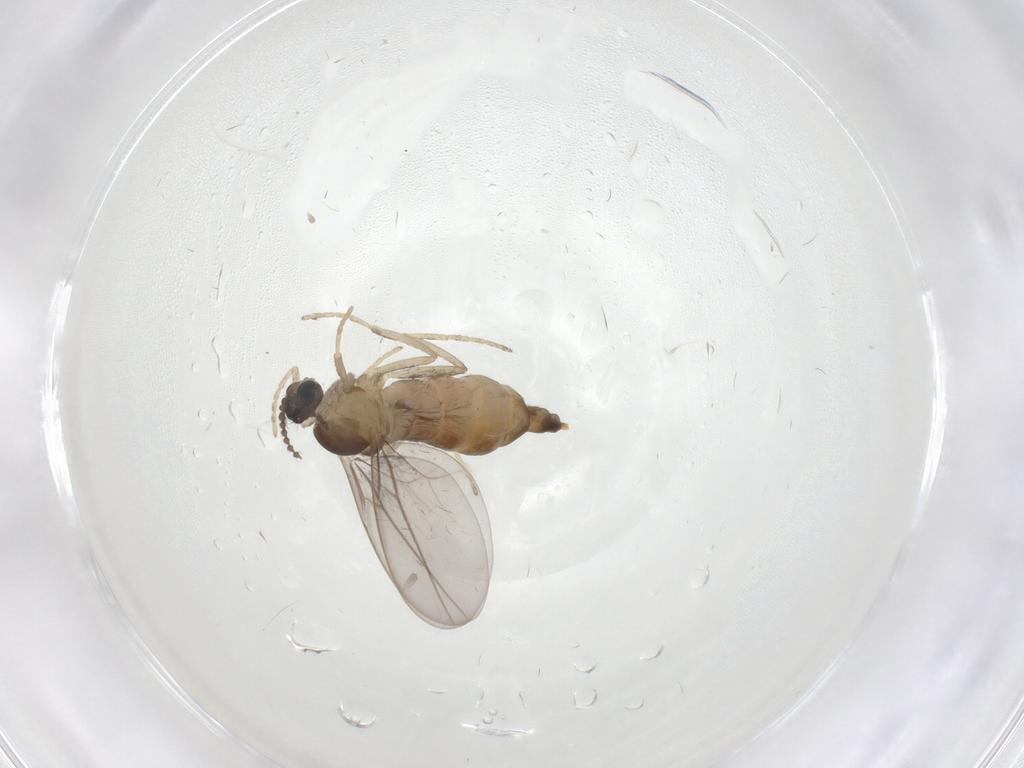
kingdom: Animalia
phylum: Arthropoda
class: Insecta
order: Diptera
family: Cecidomyiidae
